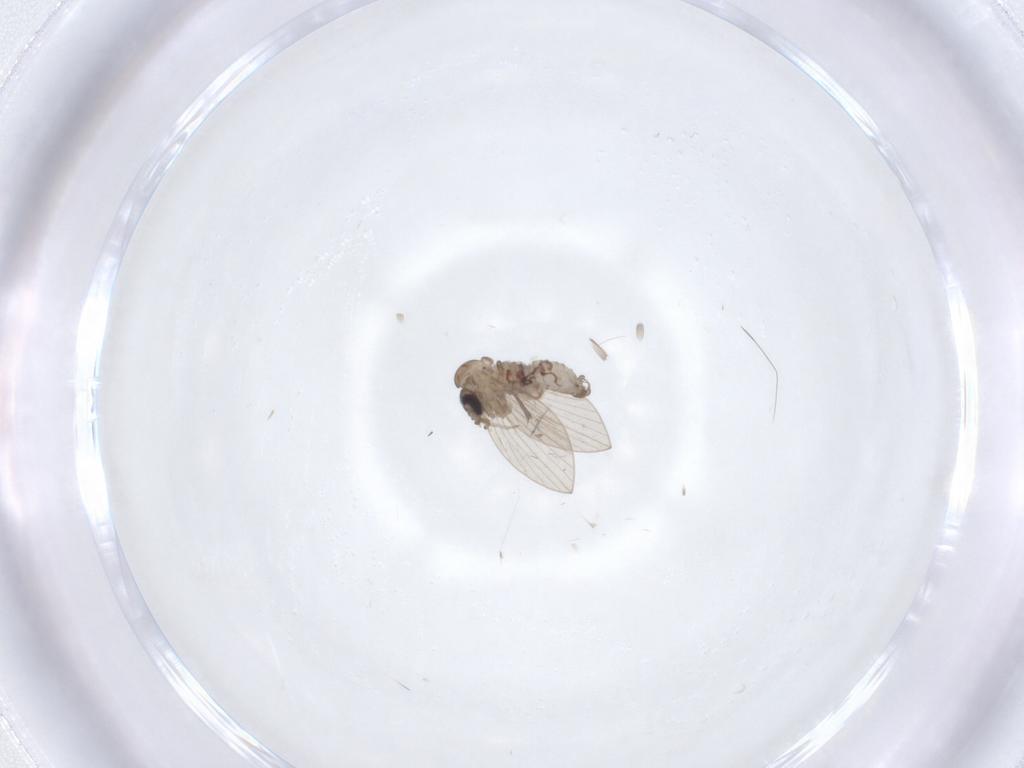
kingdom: Animalia
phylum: Arthropoda
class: Insecta
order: Diptera
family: Psychodidae
